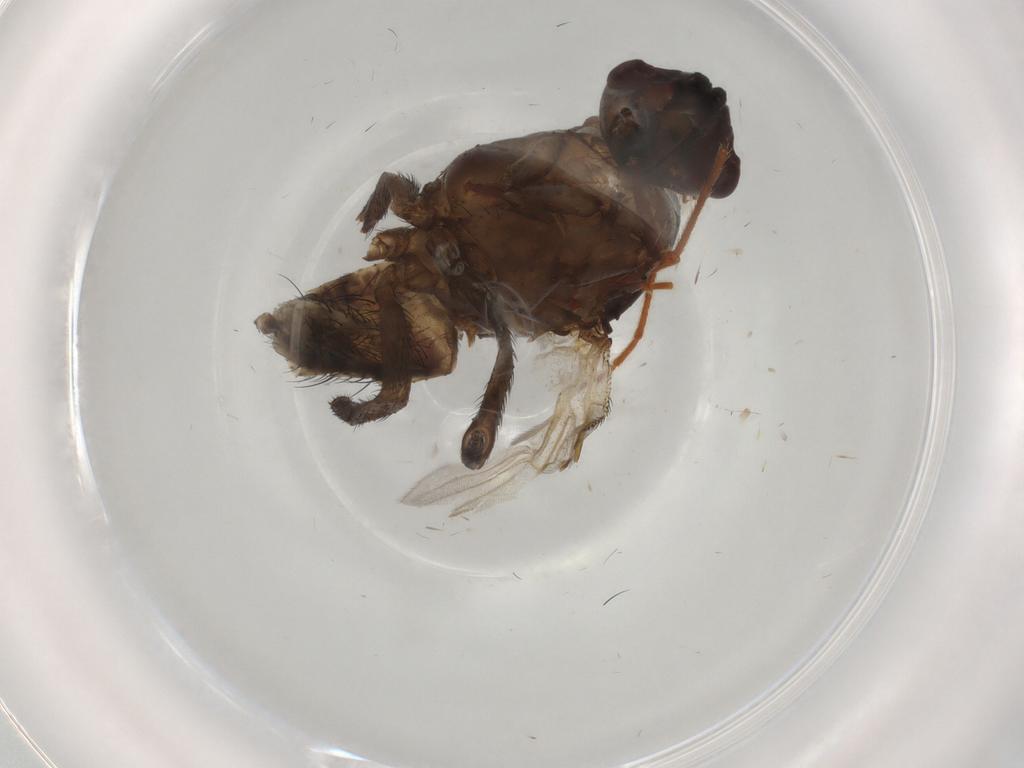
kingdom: Animalia
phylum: Arthropoda
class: Insecta
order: Diptera
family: Anthomyiidae
